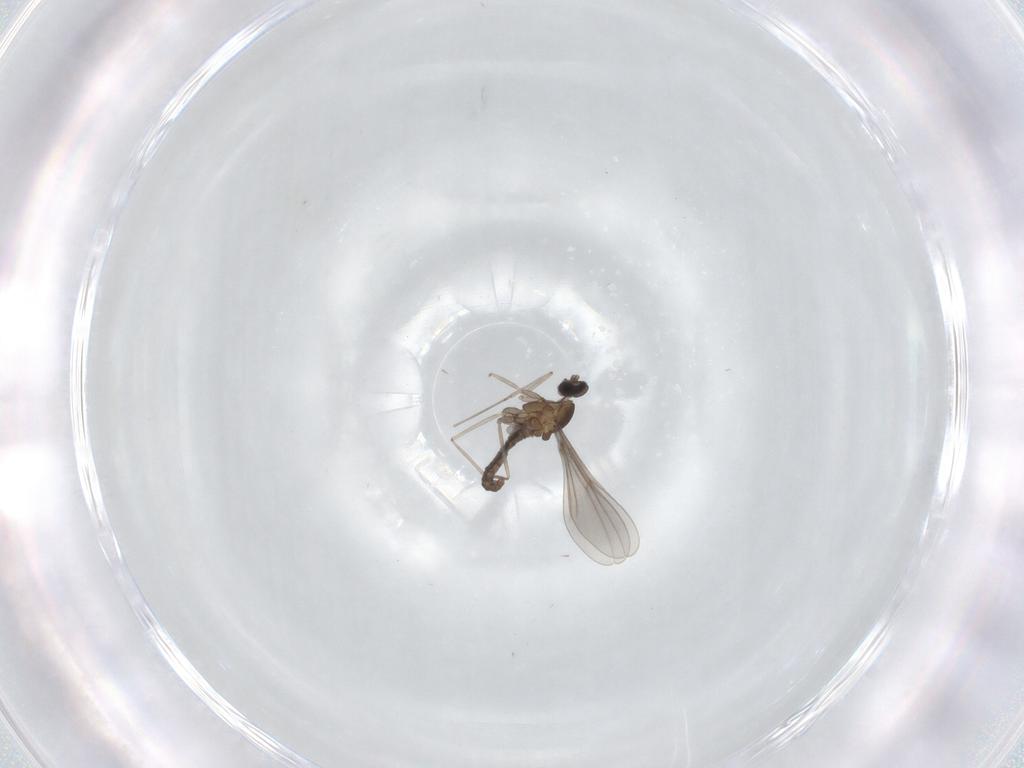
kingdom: Animalia
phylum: Arthropoda
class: Insecta
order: Diptera
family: Cecidomyiidae
